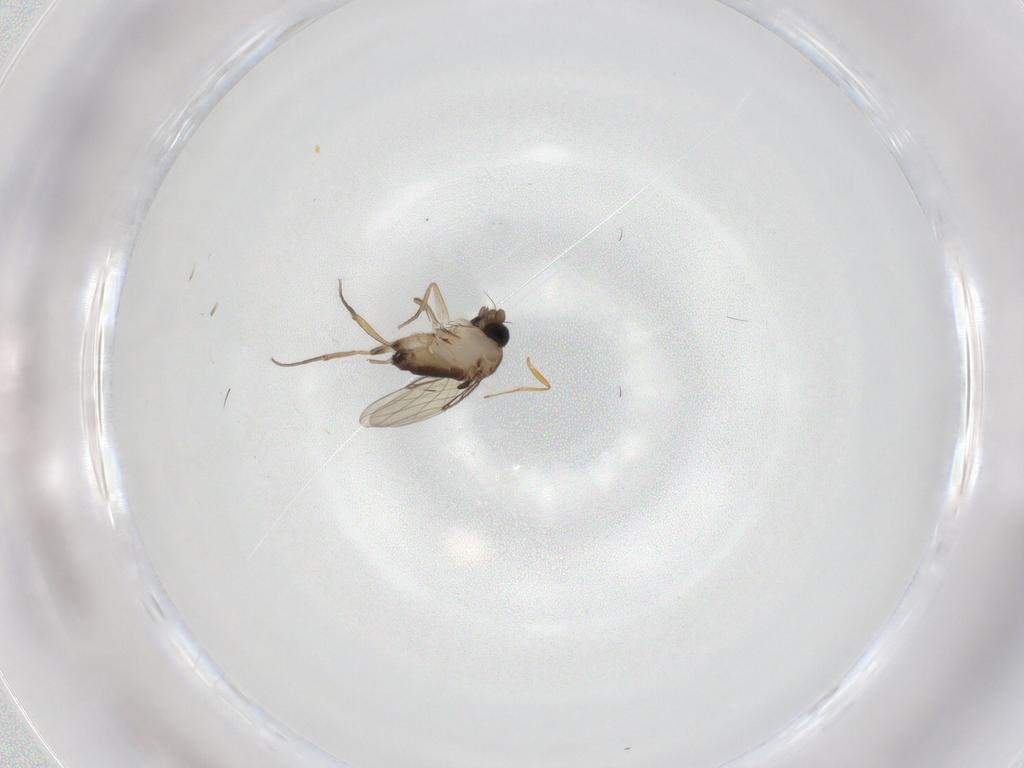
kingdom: Animalia
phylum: Arthropoda
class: Insecta
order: Diptera
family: Phoridae
